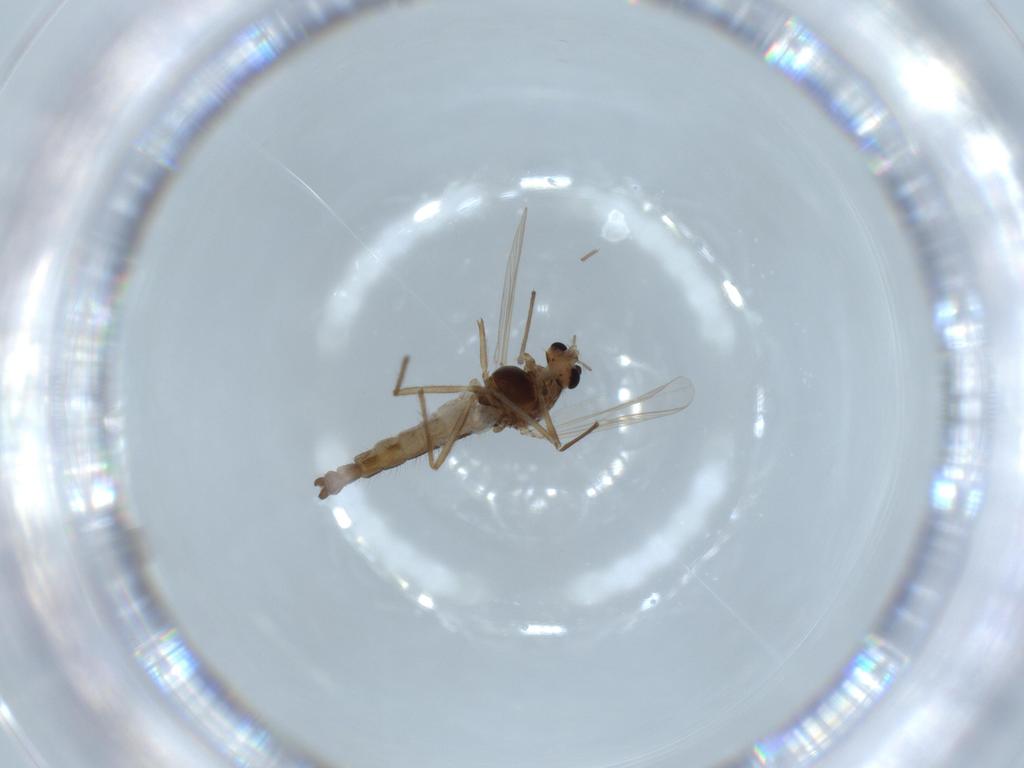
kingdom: Animalia
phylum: Arthropoda
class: Insecta
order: Diptera
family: Chironomidae
